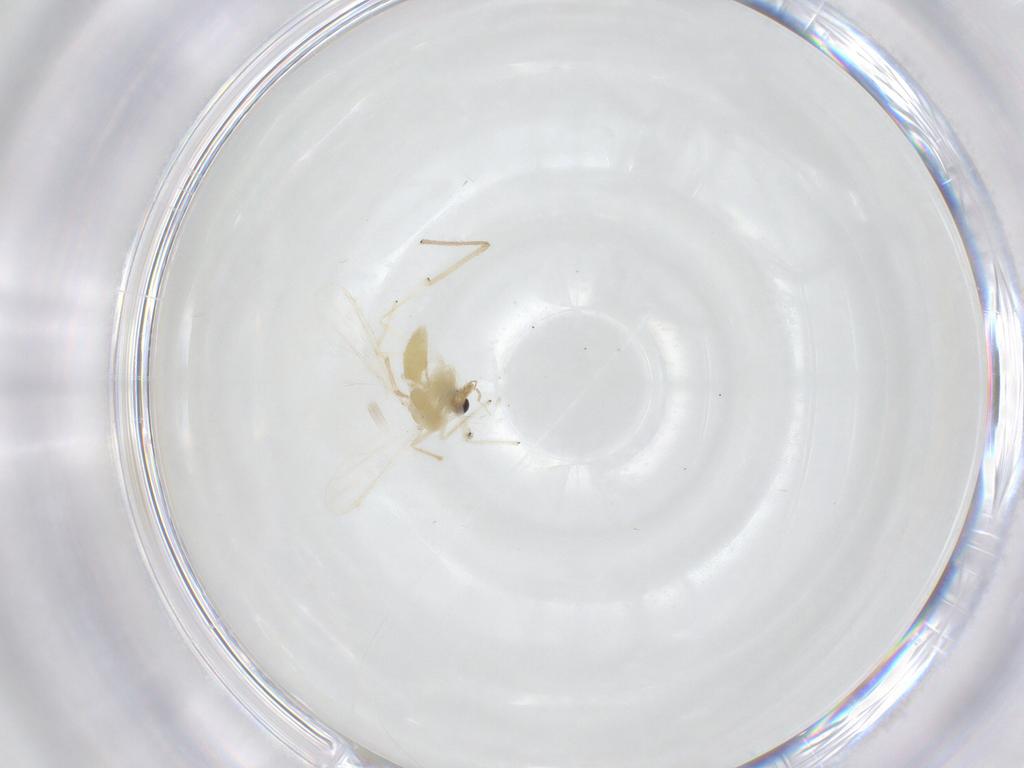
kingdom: Animalia
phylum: Arthropoda
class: Insecta
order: Diptera
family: Chironomidae
